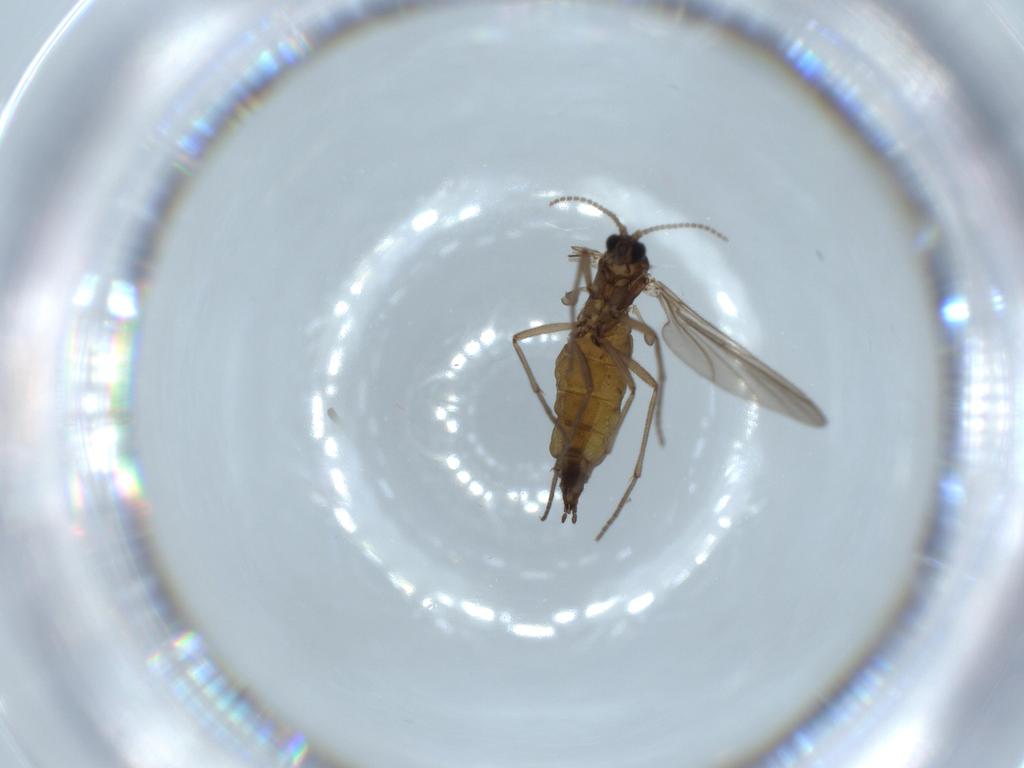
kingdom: Animalia
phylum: Arthropoda
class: Insecta
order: Diptera
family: Sciaridae
